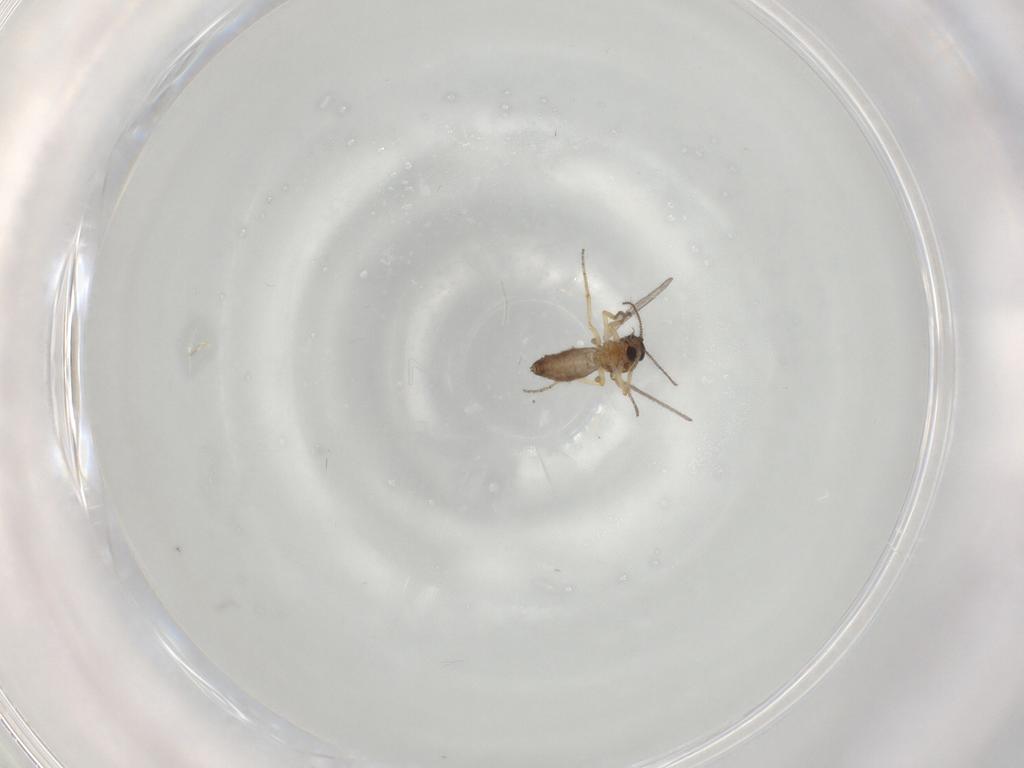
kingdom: Animalia
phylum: Arthropoda
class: Insecta
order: Diptera
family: Ceratopogonidae
